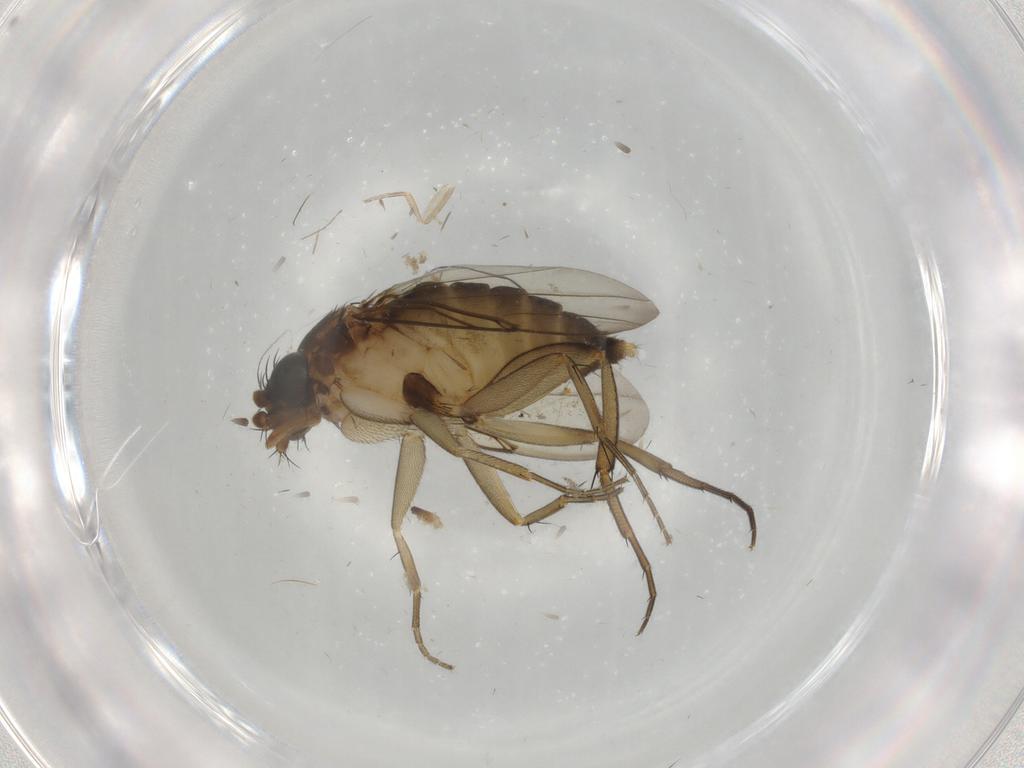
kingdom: Animalia
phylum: Arthropoda
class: Insecta
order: Diptera
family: Phoridae
